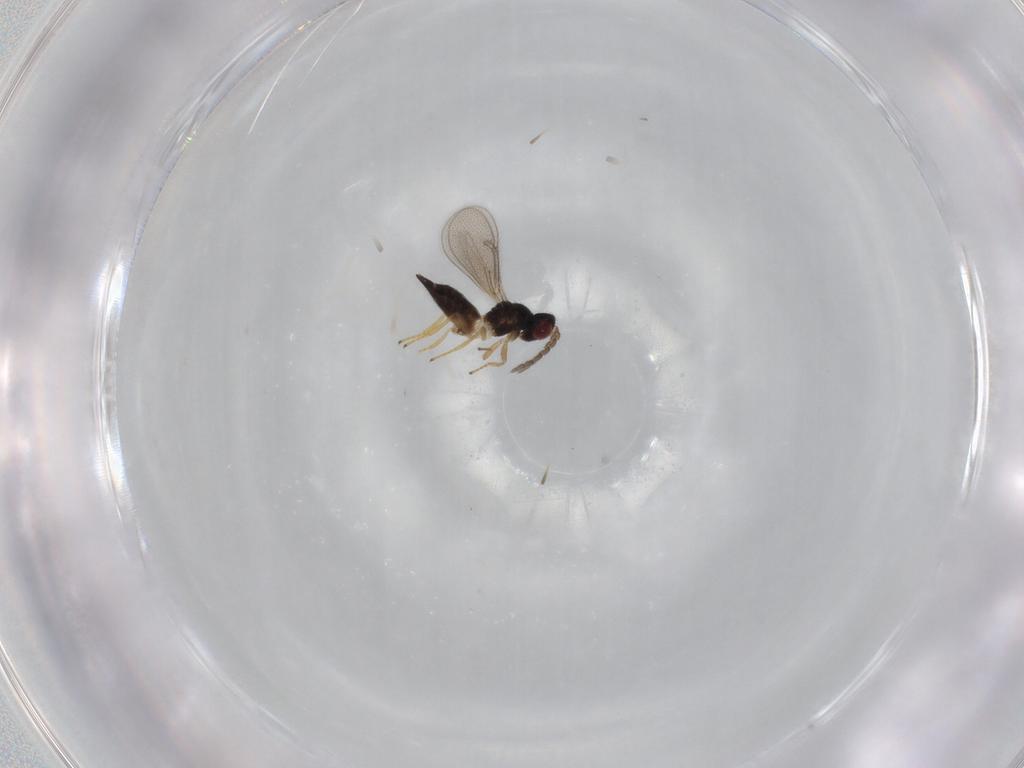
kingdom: Animalia
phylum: Arthropoda
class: Insecta
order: Hymenoptera
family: Eulophidae
